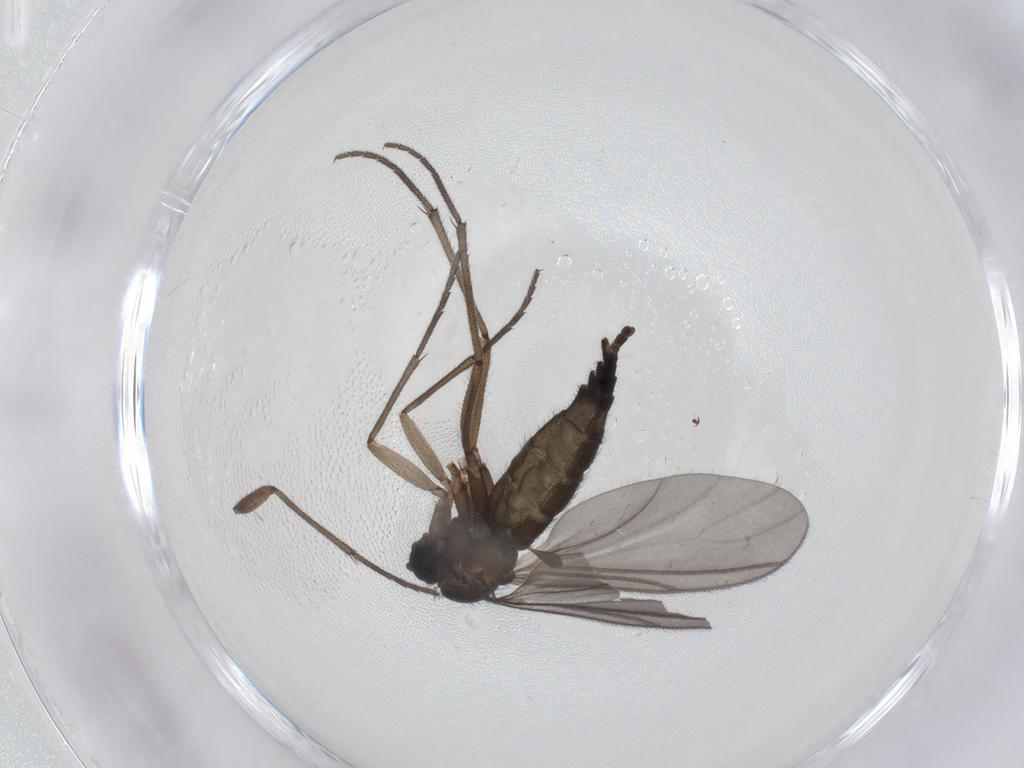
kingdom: Animalia
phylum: Arthropoda
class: Insecta
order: Diptera
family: Sciaridae
